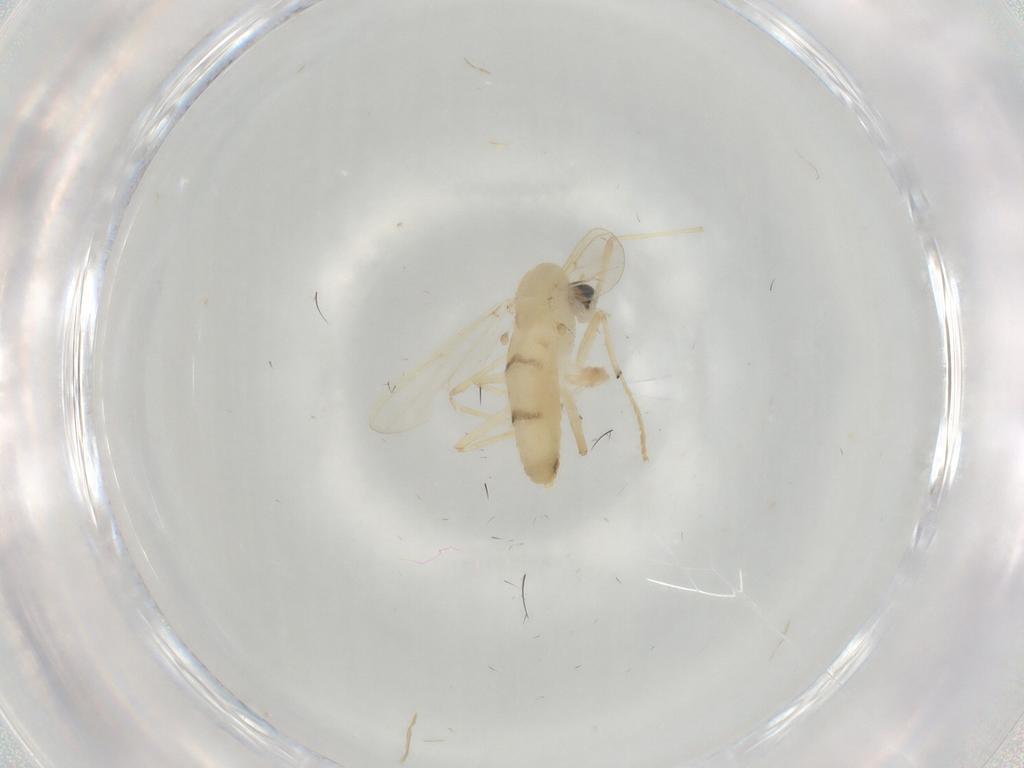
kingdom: Animalia
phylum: Arthropoda
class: Insecta
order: Diptera
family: Chironomidae
